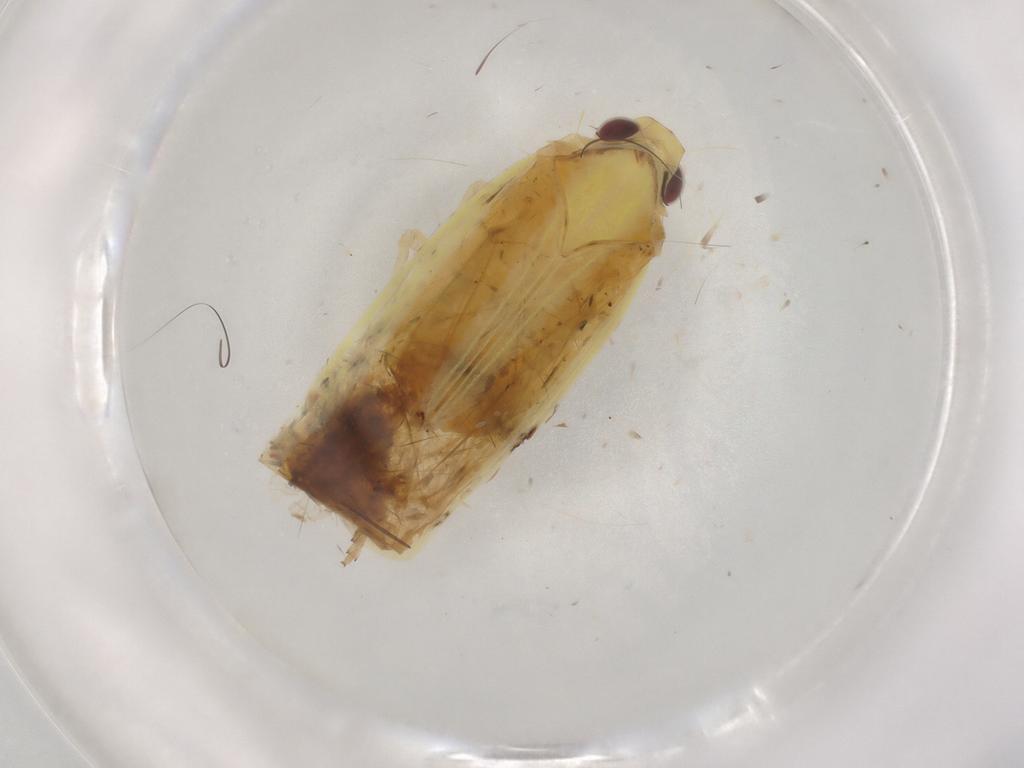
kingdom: Animalia
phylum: Arthropoda
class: Insecta
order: Hemiptera
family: Achilidae
